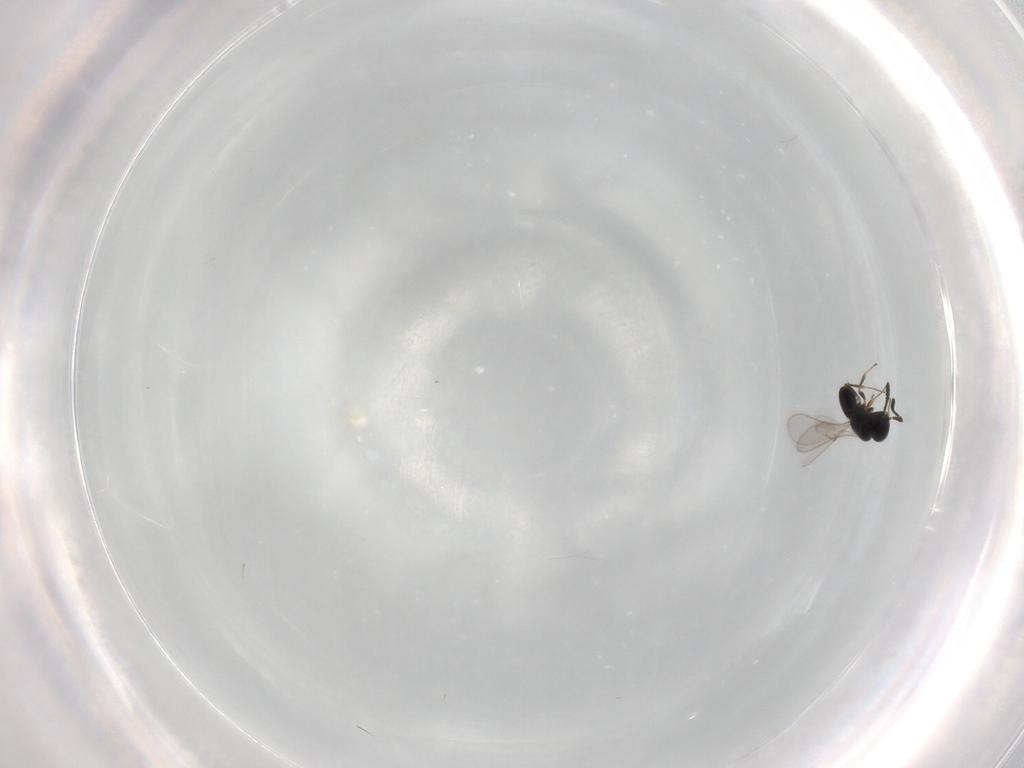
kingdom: Animalia
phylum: Arthropoda
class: Insecta
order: Hymenoptera
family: Scelionidae
